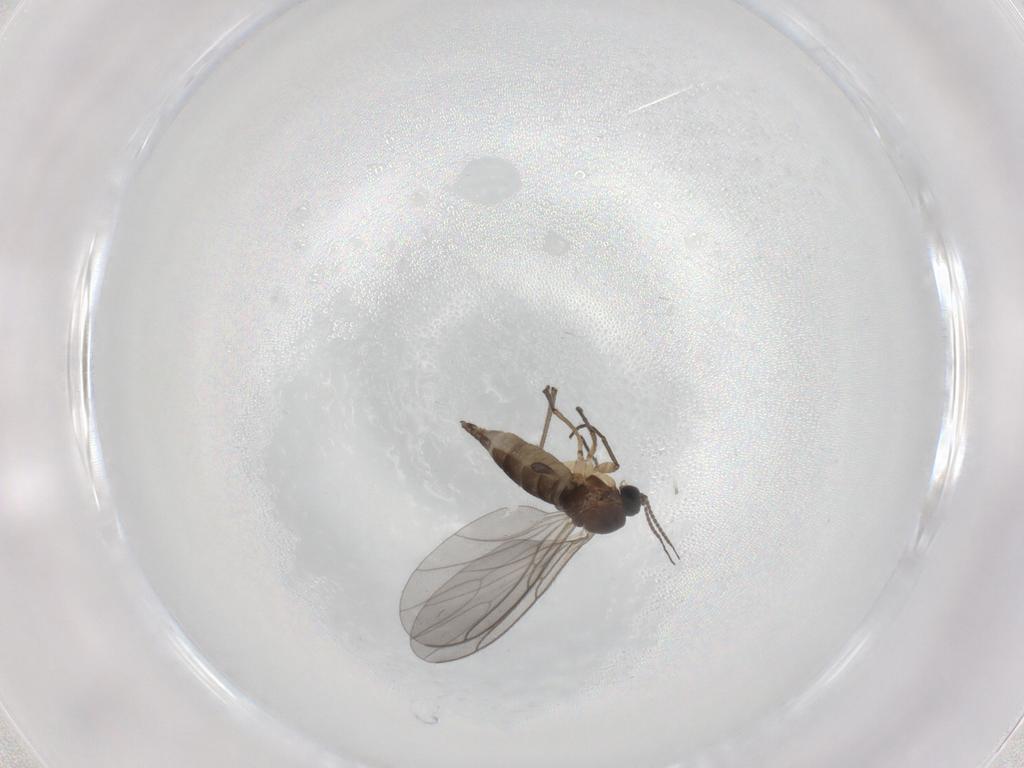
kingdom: Animalia
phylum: Arthropoda
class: Insecta
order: Diptera
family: Sciaridae
